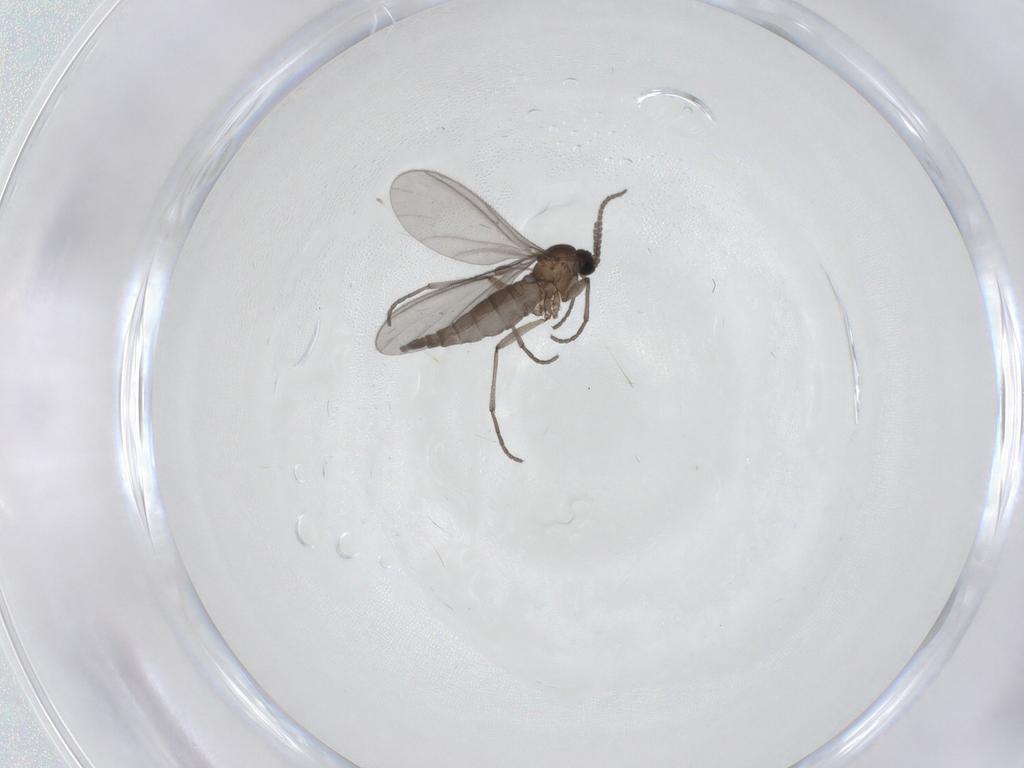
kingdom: Animalia
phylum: Arthropoda
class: Insecta
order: Diptera
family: Sciaridae
